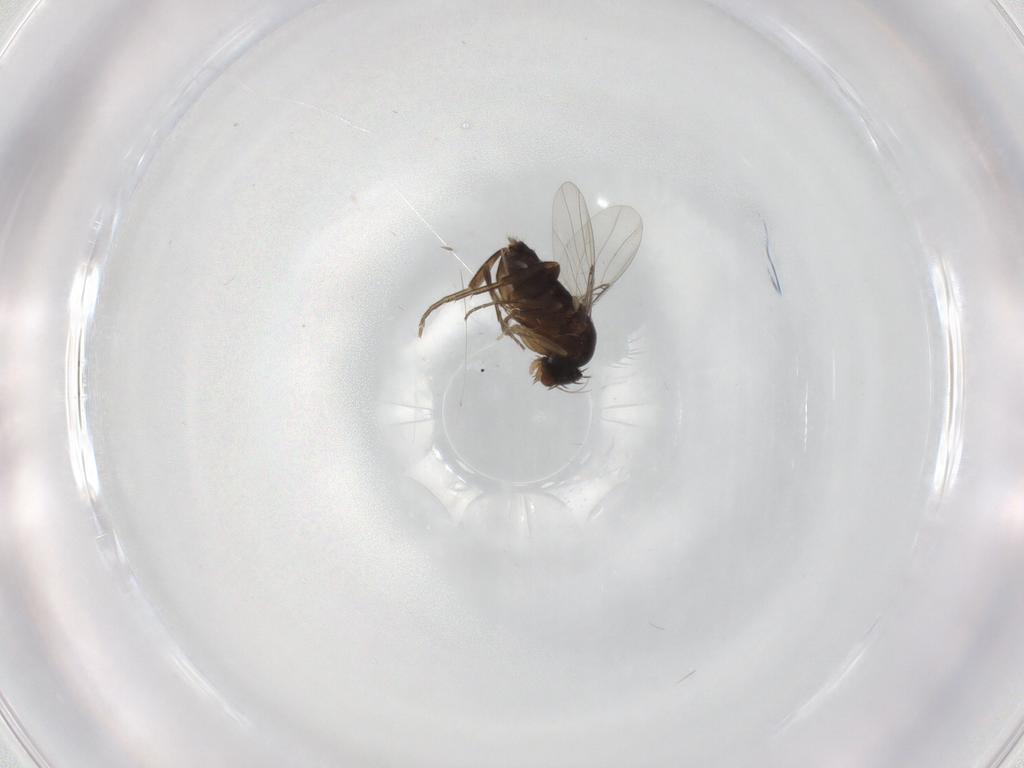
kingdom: Animalia
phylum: Arthropoda
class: Insecta
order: Diptera
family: Phoridae
